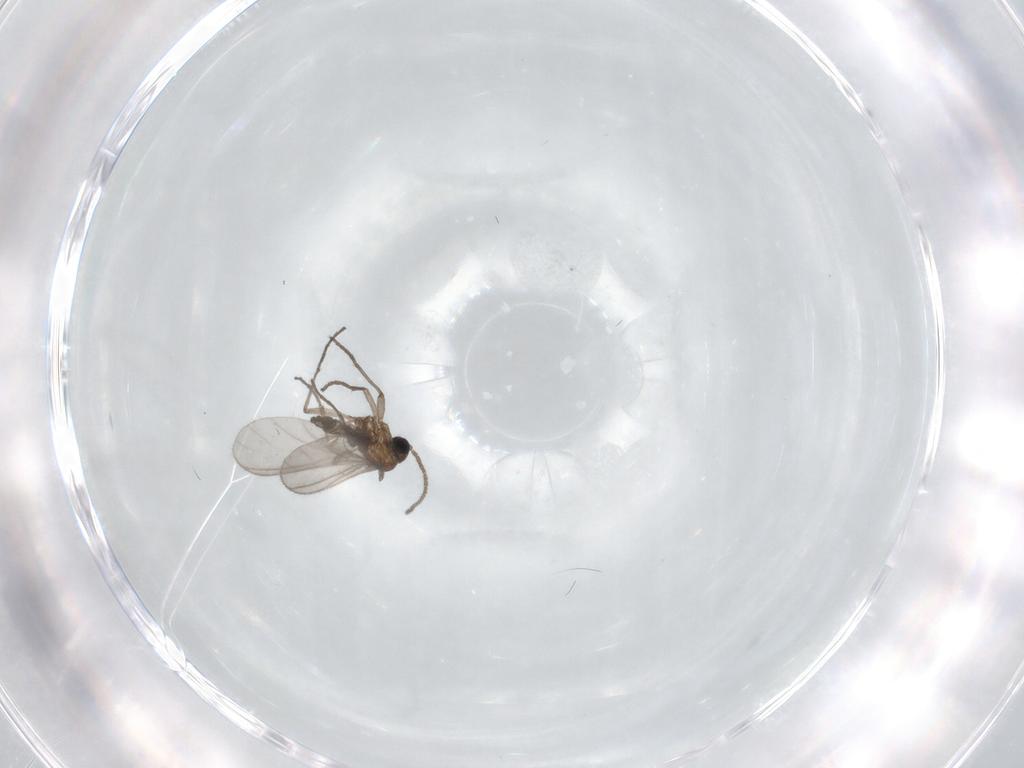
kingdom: Animalia
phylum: Arthropoda
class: Insecta
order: Diptera
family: Sciaridae
